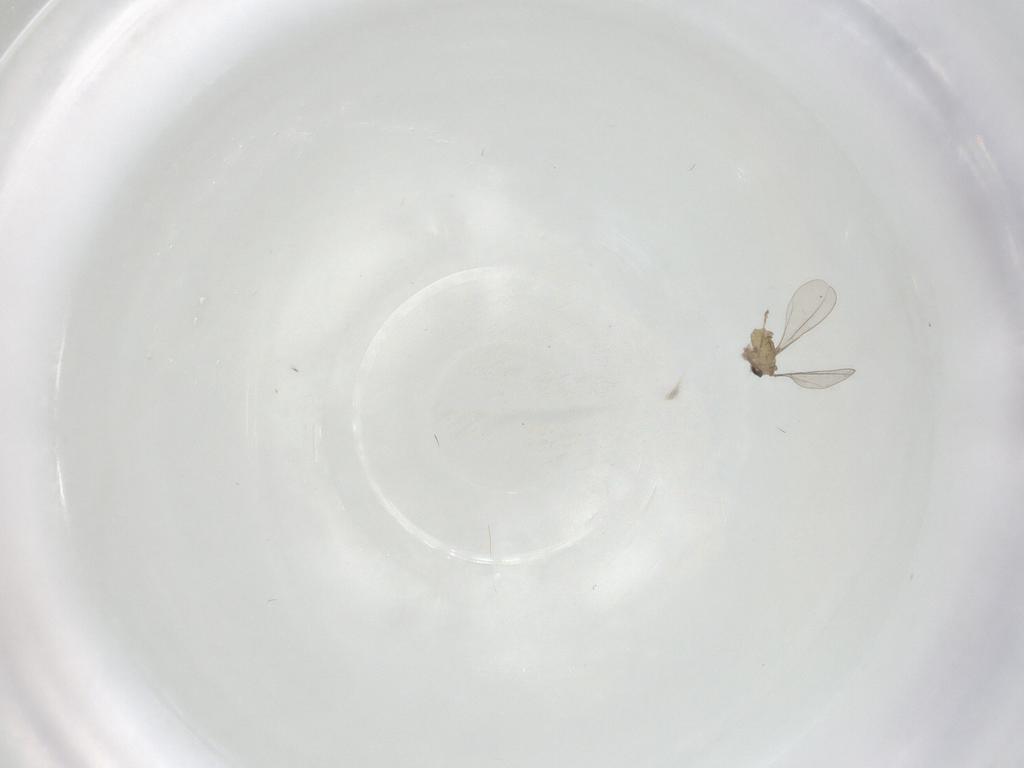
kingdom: Animalia
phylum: Arthropoda
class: Insecta
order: Diptera
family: Cecidomyiidae
